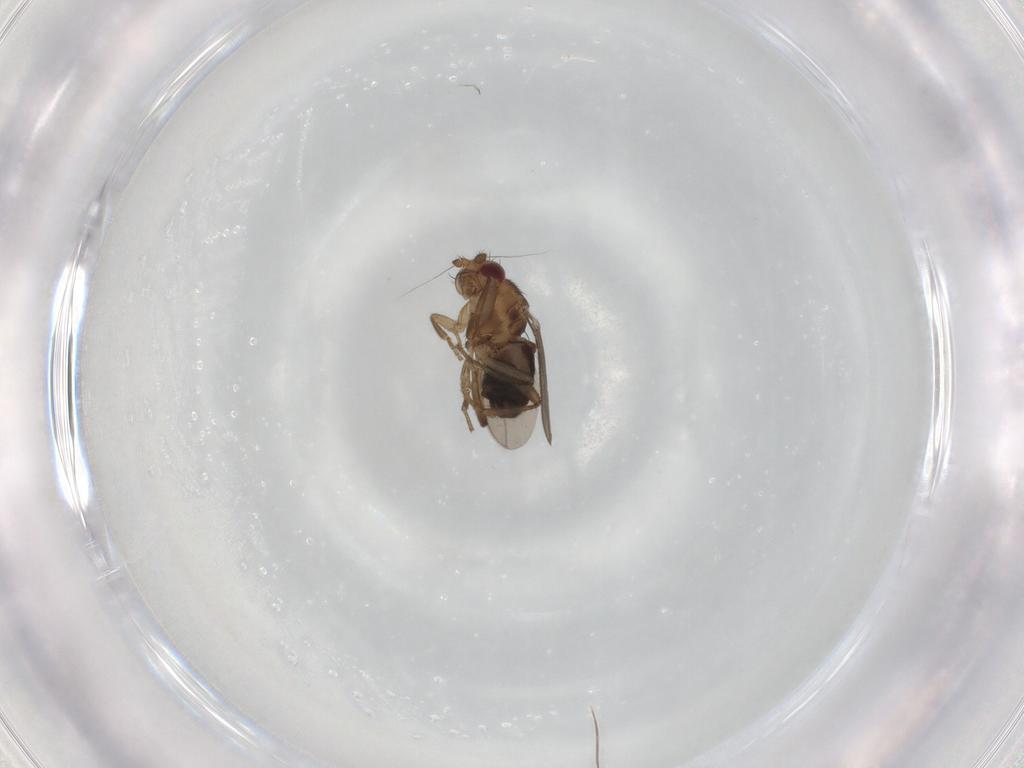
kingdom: Animalia
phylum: Arthropoda
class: Insecta
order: Diptera
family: Sphaeroceridae
